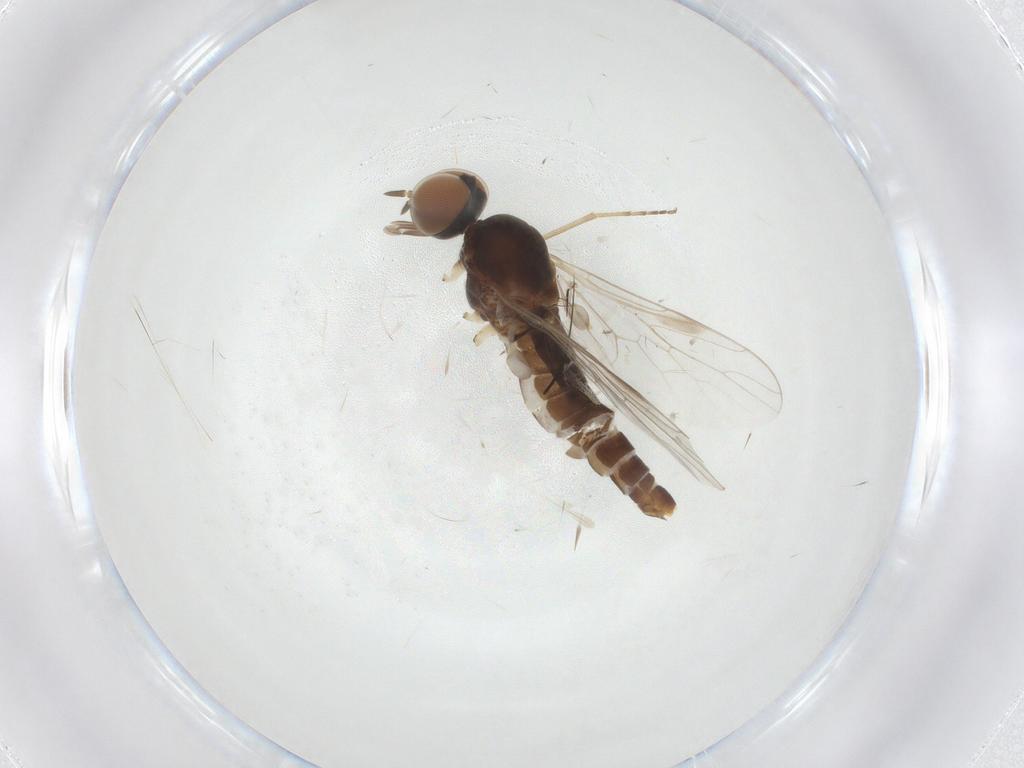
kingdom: Animalia
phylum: Arthropoda
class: Insecta
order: Diptera
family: Scenopinidae
